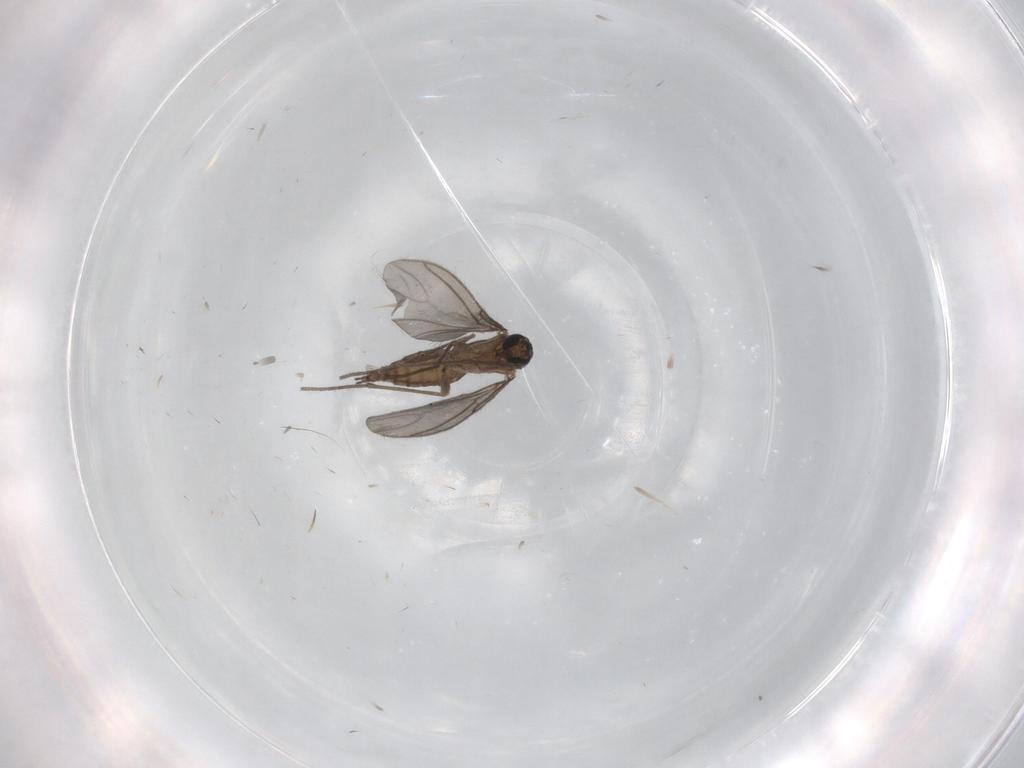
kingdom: Animalia
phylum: Arthropoda
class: Insecta
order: Diptera
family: Sciaridae
